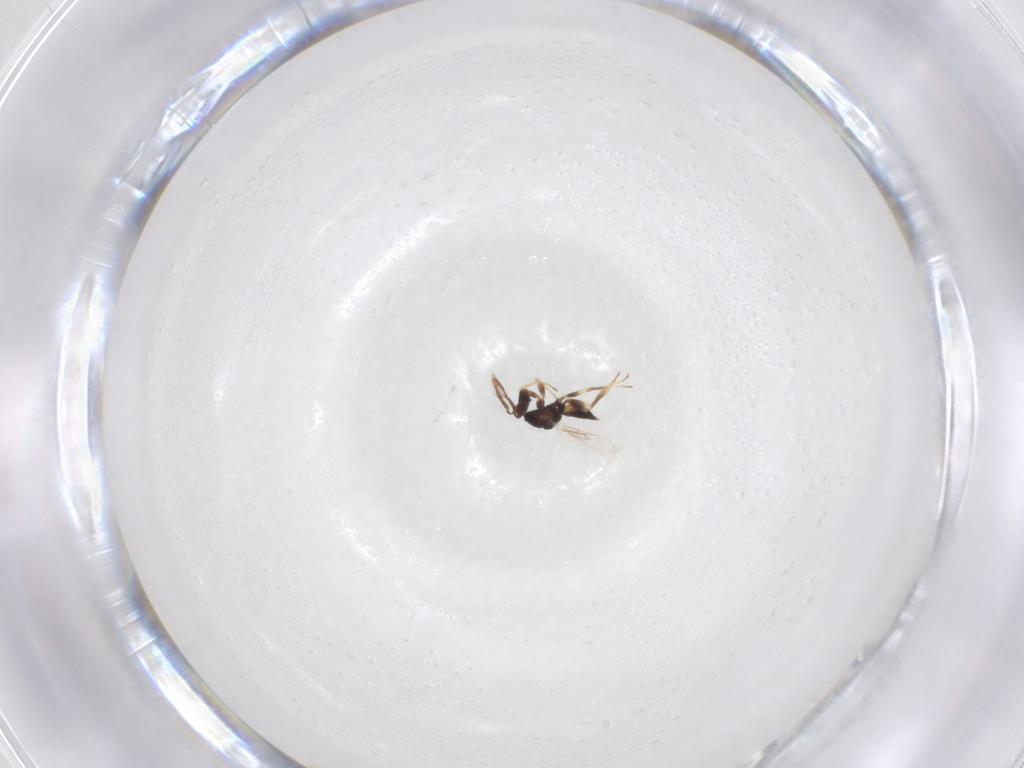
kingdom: Animalia
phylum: Arthropoda
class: Insecta
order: Hymenoptera
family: Eulophidae
